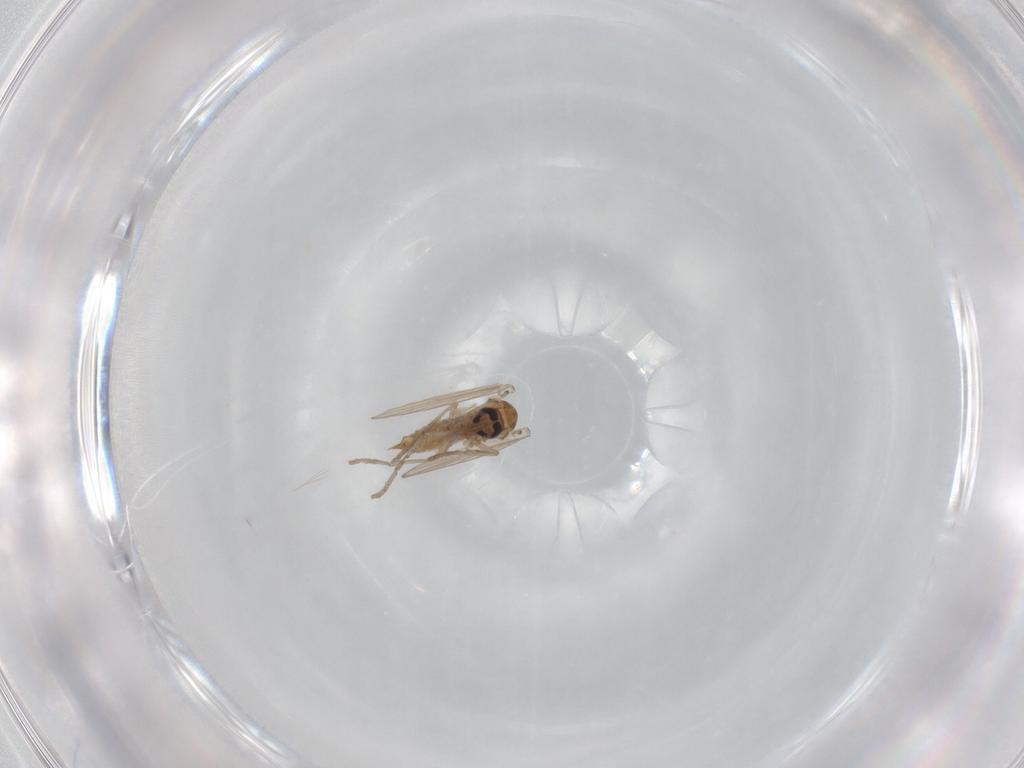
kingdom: Animalia
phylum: Arthropoda
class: Insecta
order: Diptera
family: Psychodidae
